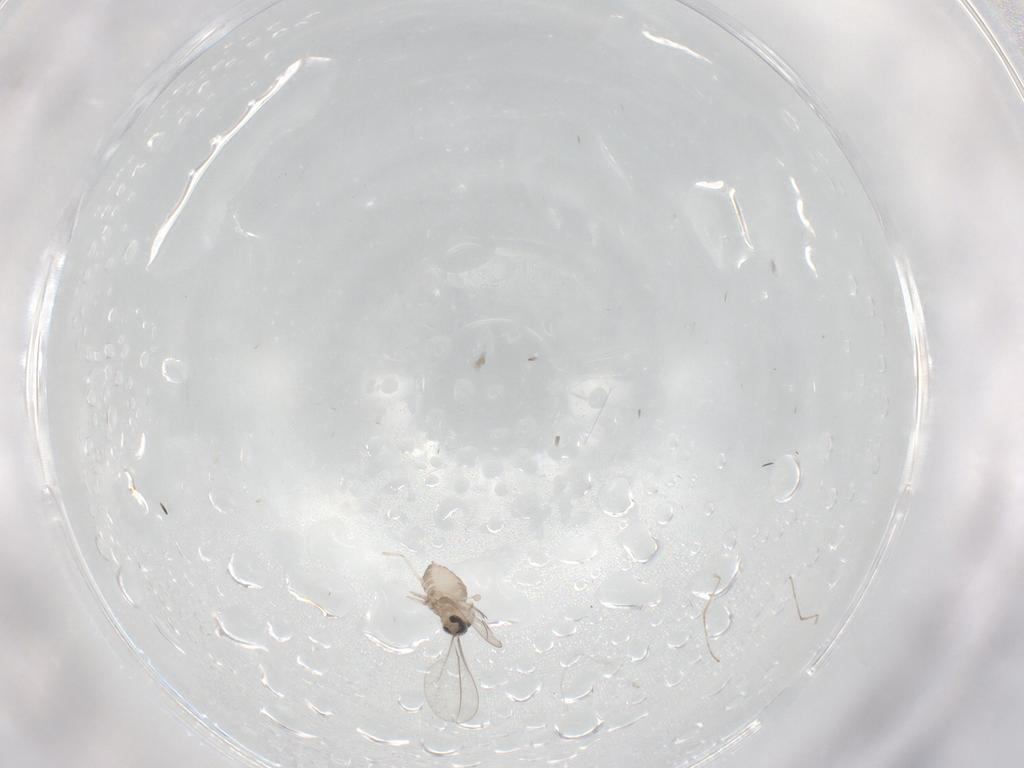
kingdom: Animalia
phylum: Arthropoda
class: Insecta
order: Diptera
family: Cecidomyiidae
